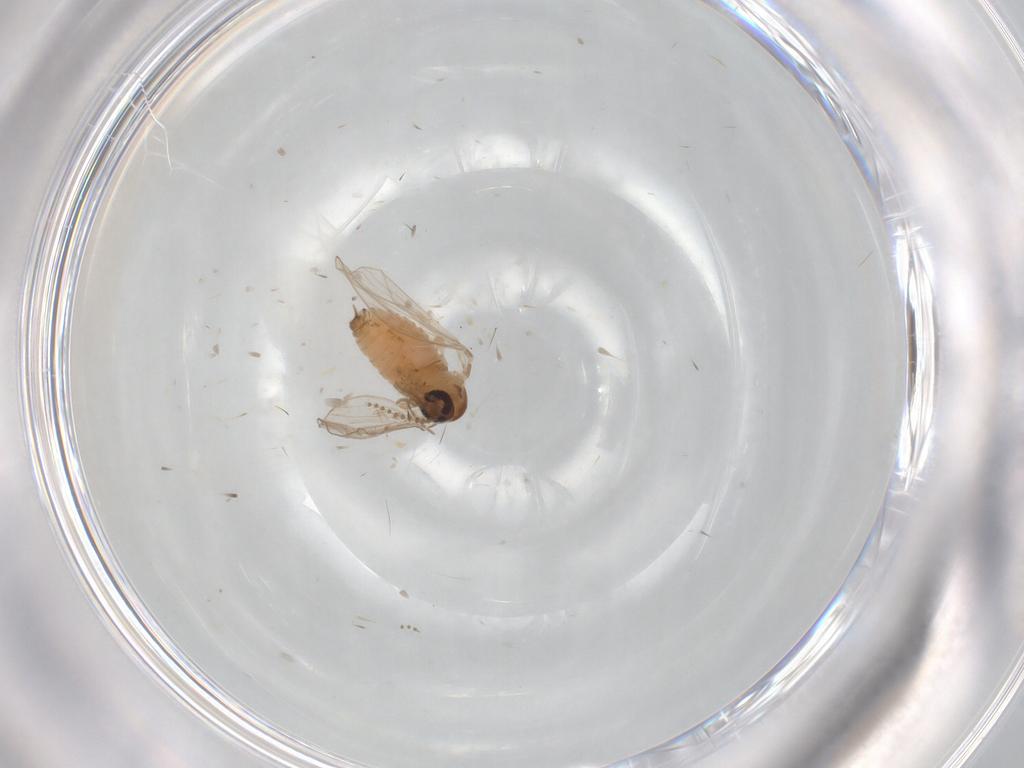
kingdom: Animalia
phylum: Arthropoda
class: Insecta
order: Diptera
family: Psychodidae
